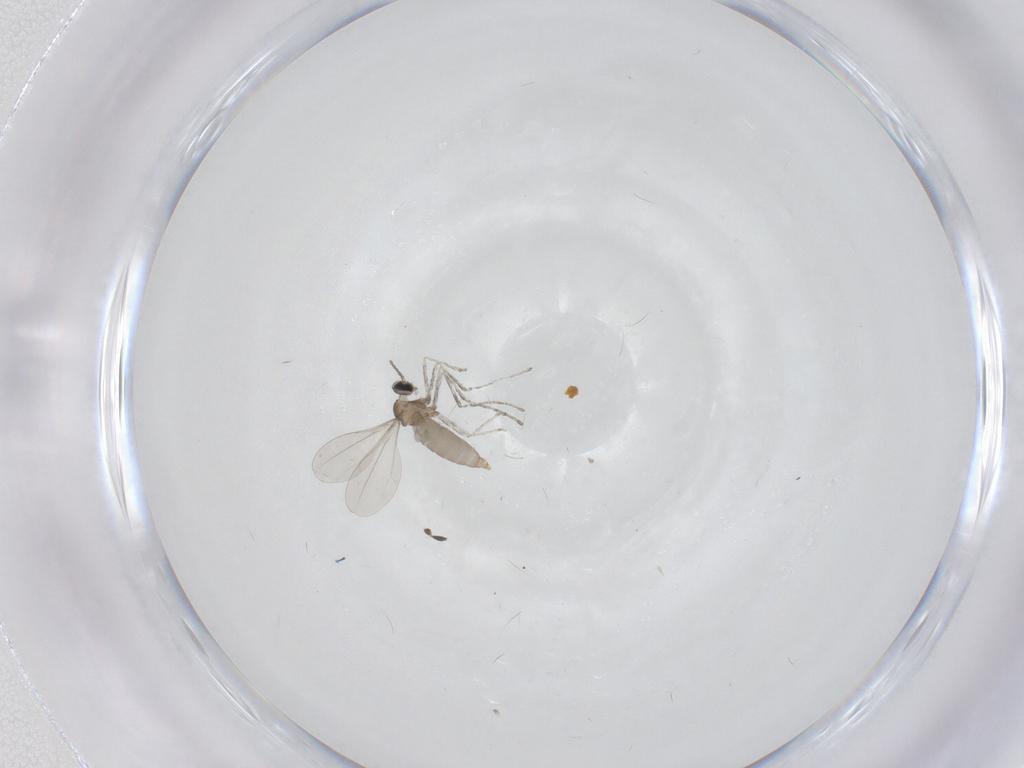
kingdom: Animalia
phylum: Arthropoda
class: Insecta
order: Diptera
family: Cecidomyiidae
